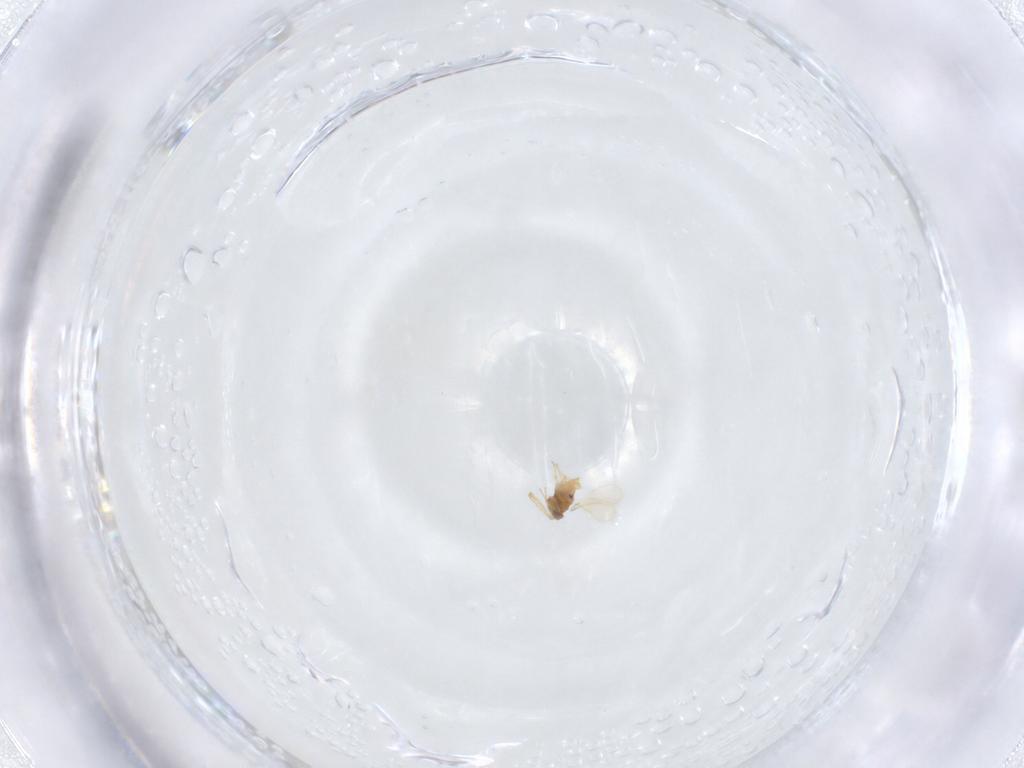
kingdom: Animalia
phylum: Arthropoda
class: Insecta
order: Hymenoptera
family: Aphelinidae
